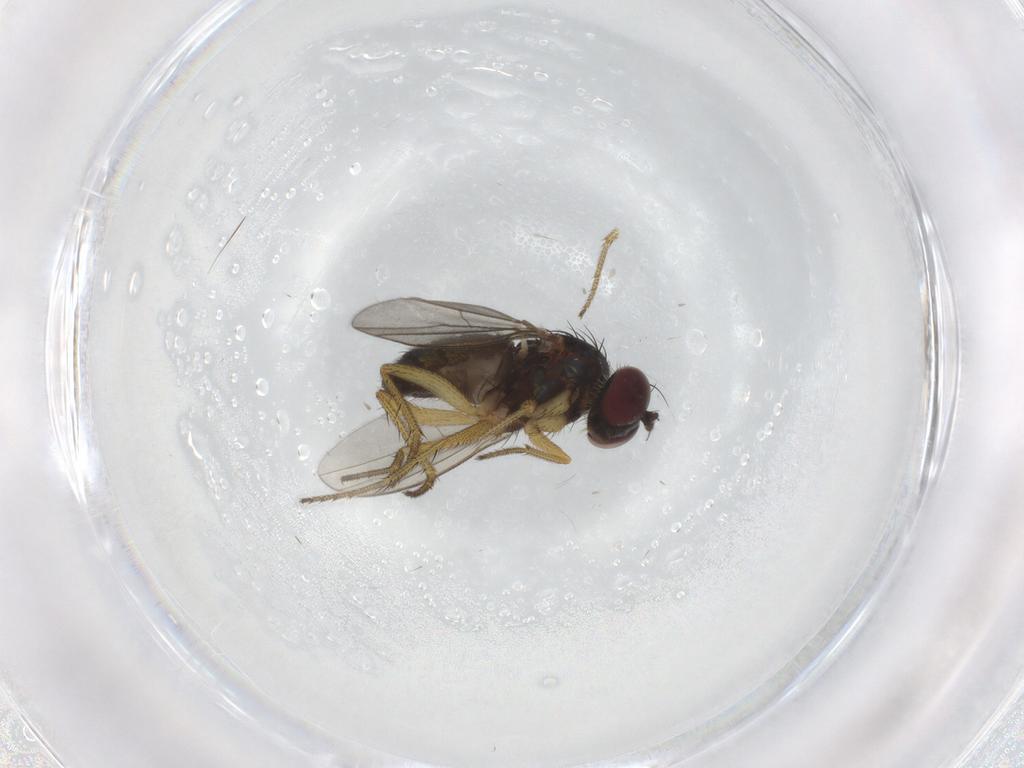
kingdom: Animalia
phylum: Arthropoda
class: Insecta
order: Diptera
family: Dolichopodidae
